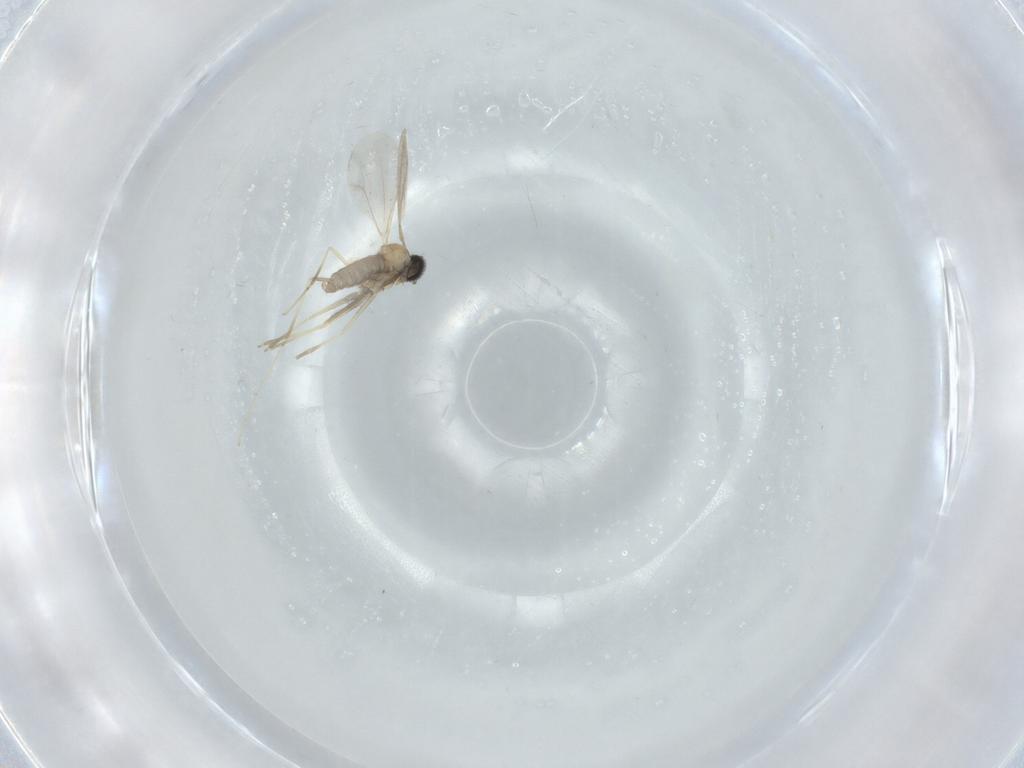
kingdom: Animalia
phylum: Arthropoda
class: Insecta
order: Diptera
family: Cecidomyiidae
